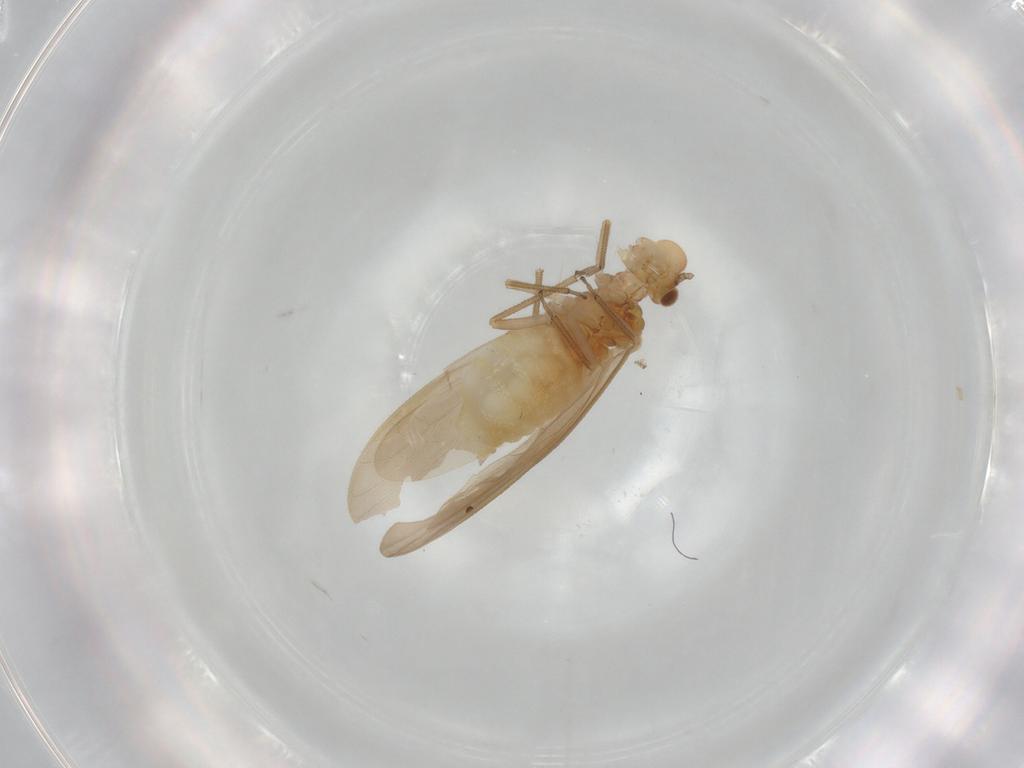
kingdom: Animalia
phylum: Arthropoda
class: Insecta
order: Psocodea
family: Caeciliusidae
